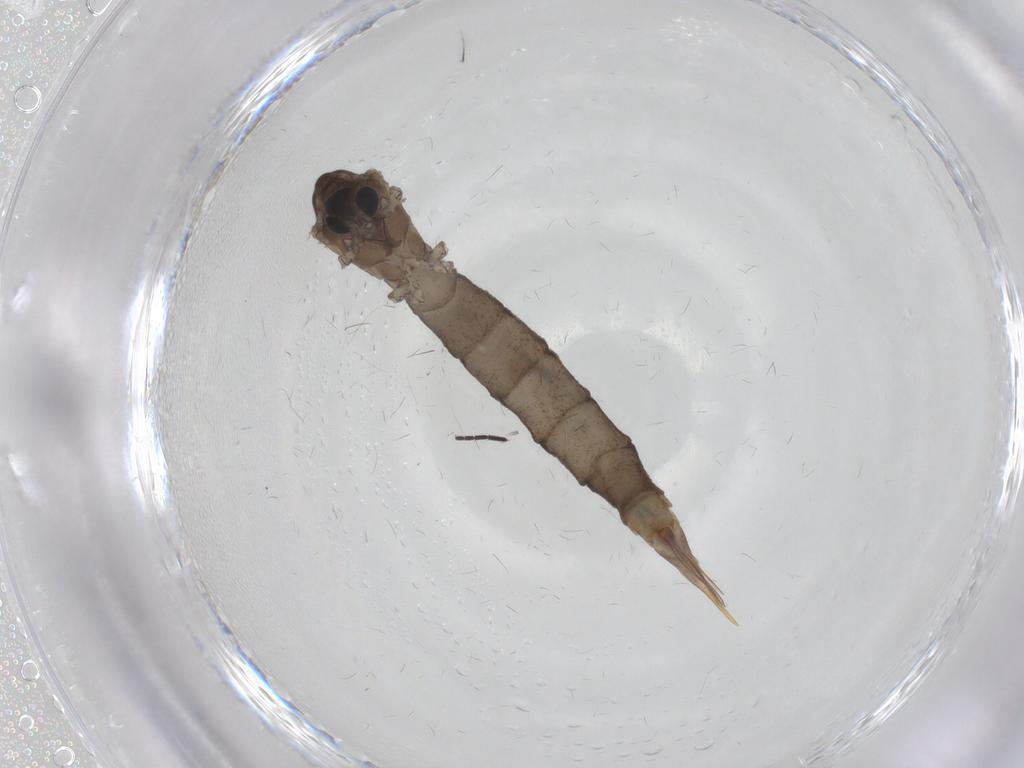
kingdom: Animalia
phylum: Arthropoda
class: Insecta
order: Diptera
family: Limoniidae
